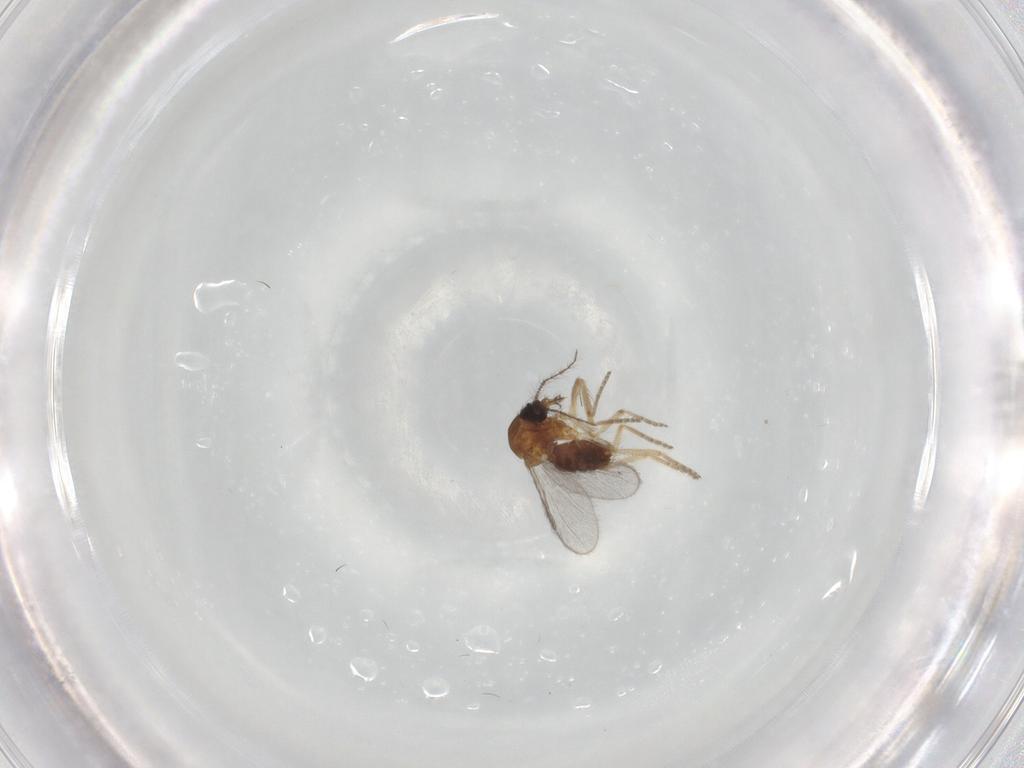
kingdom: Animalia
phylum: Arthropoda
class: Insecta
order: Diptera
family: Ceratopogonidae
